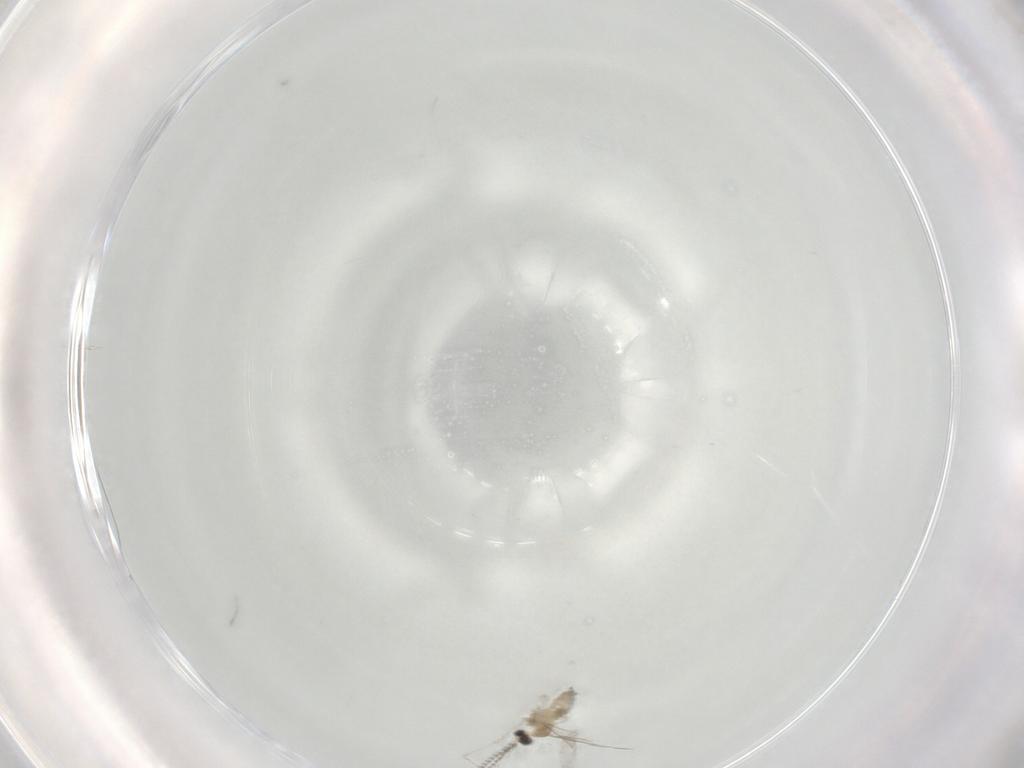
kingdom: Animalia
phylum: Arthropoda
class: Insecta
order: Diptera
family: Cecidomyiidae
